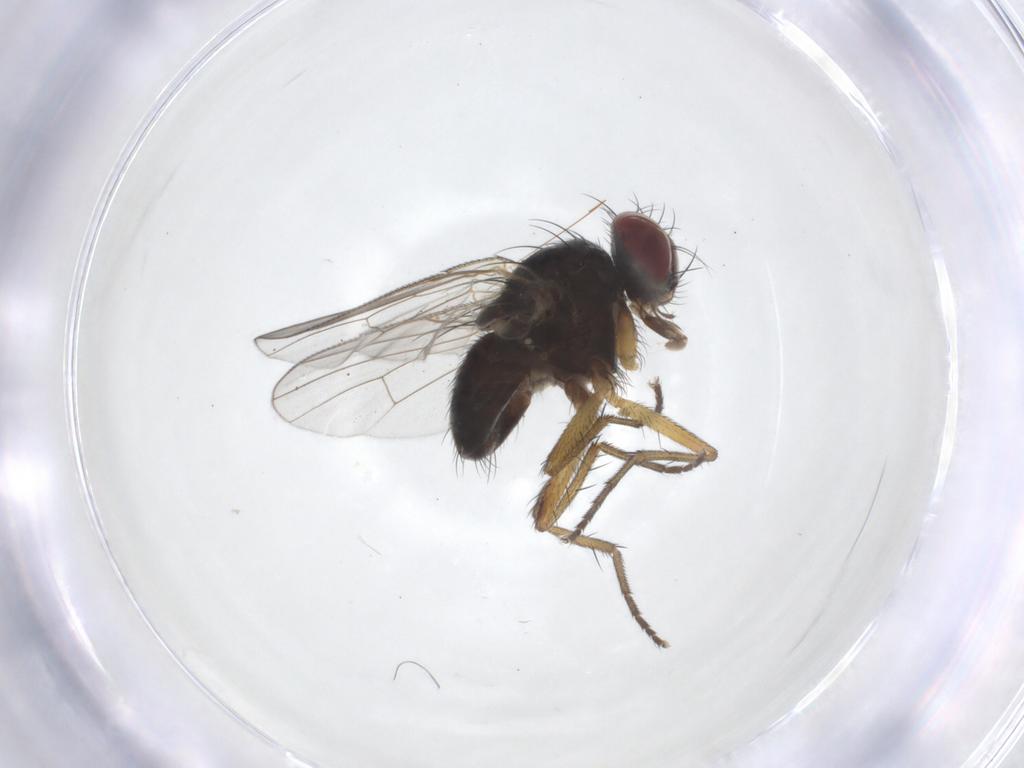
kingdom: Animalia
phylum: Arthropoda
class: Insecta
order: Diptera
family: Muscidae
